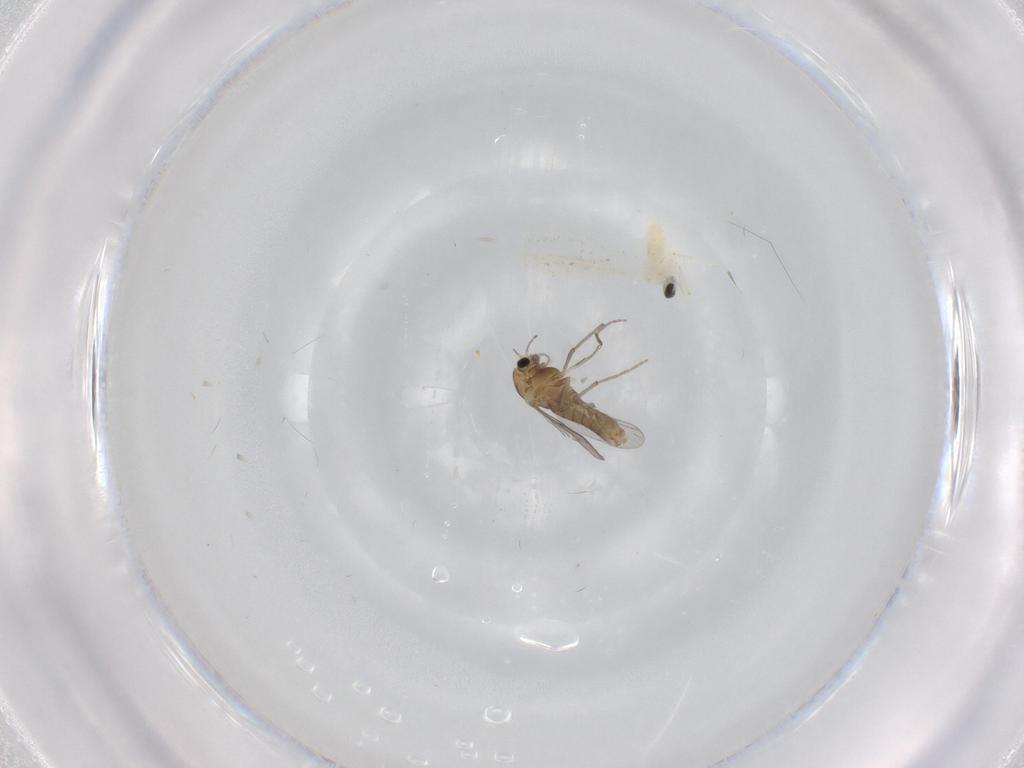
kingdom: Animalia
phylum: Arthropoda
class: Insecta
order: Diptera
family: Chironomidae
